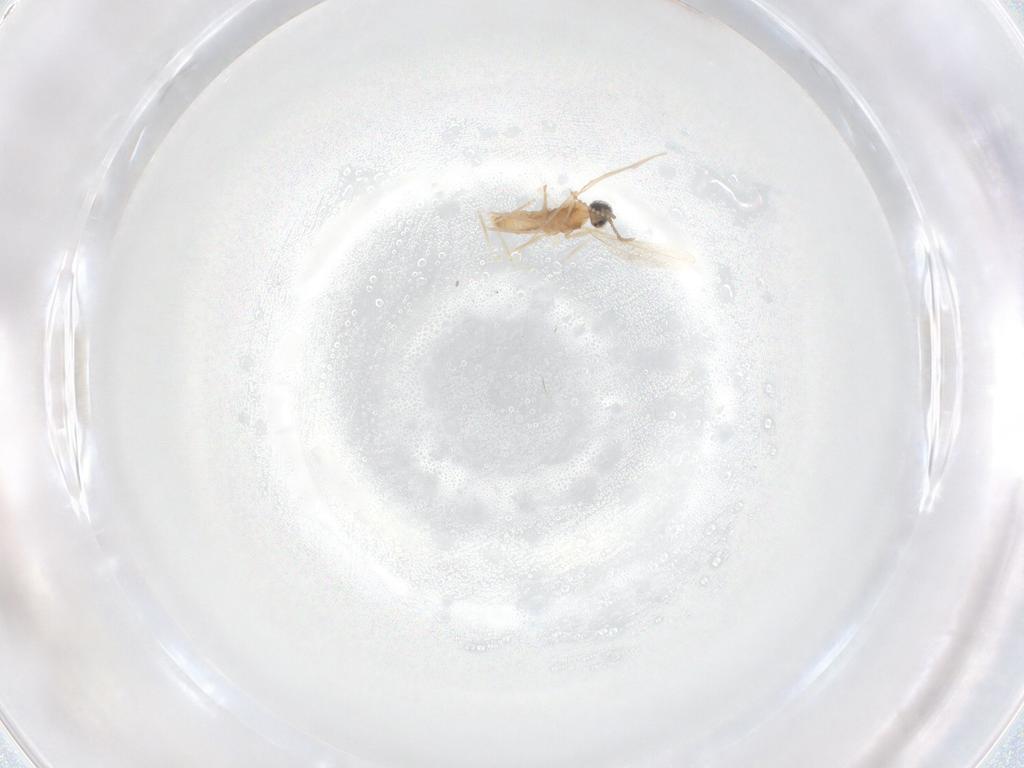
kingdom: Animalia
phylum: Arthropoda
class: Insecta
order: Diptera
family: Cecidomyiidae
